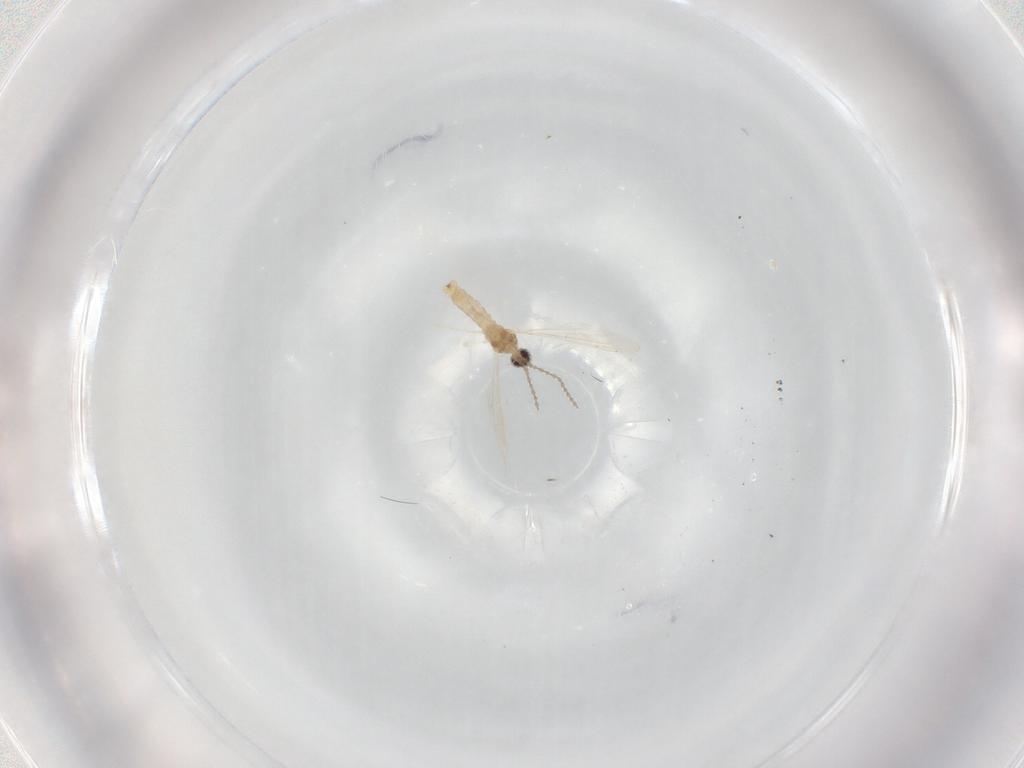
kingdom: Animalia
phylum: Arthropoda
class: Insecta
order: Diptera
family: Cecidomyiidae
